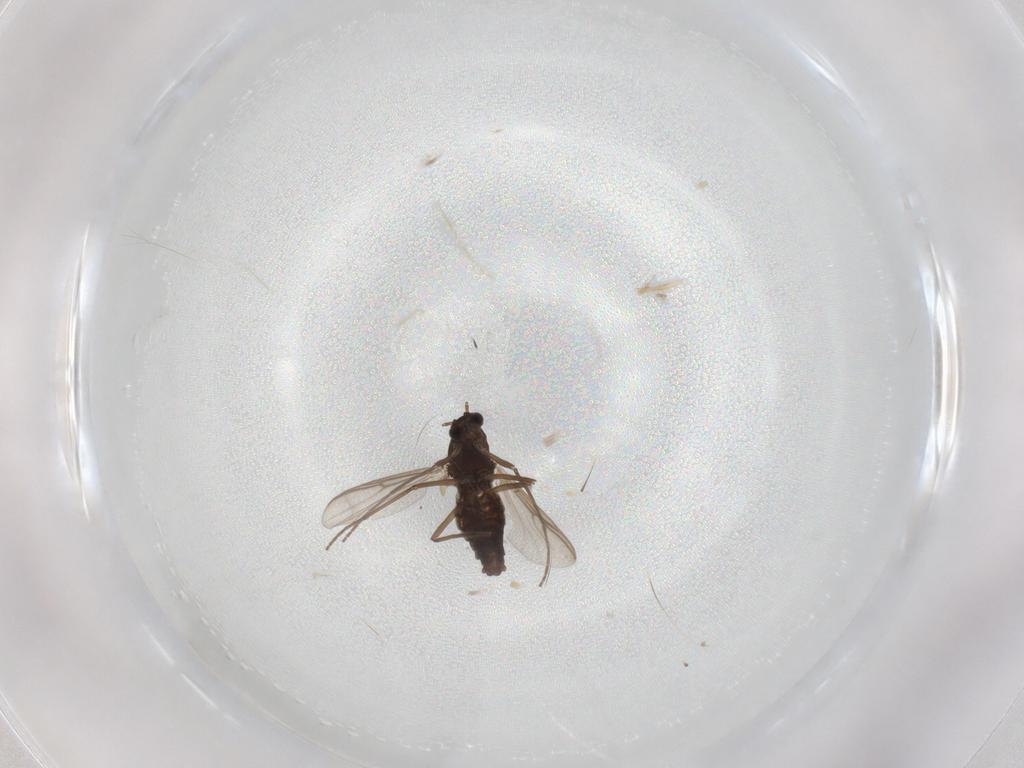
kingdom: Animalia
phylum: Arthropoda
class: Insecta
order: Diptera
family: Chironomidae
